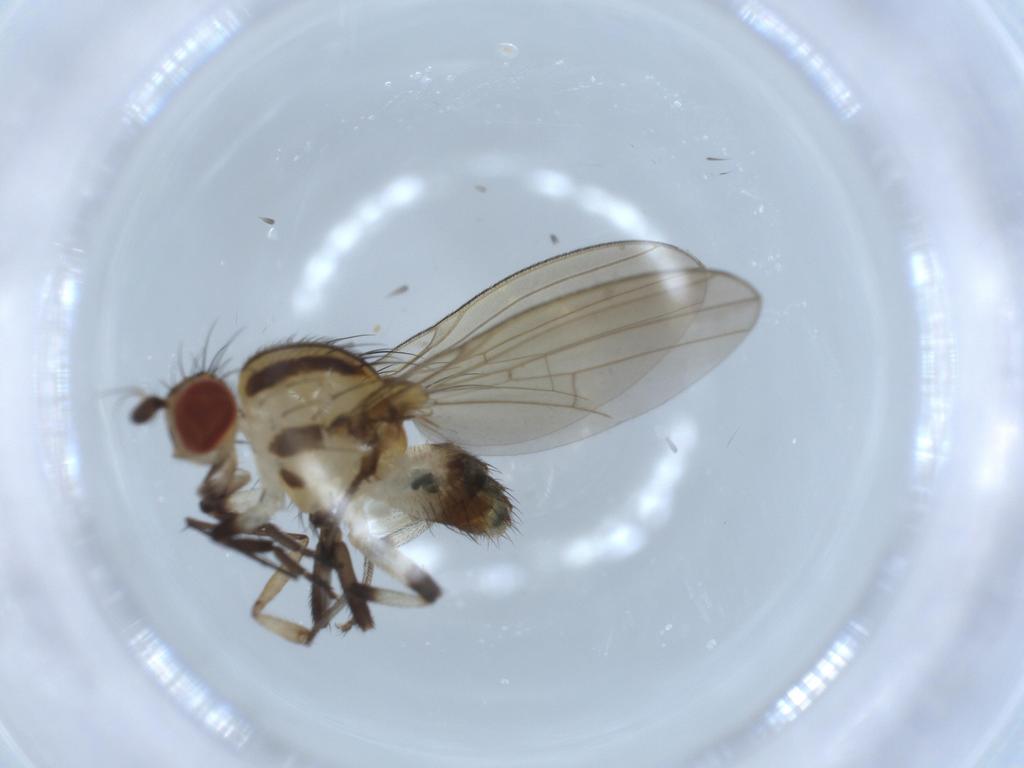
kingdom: Animalia
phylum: Arthropoda
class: Insecta
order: Diptera
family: Lauxaniidae
